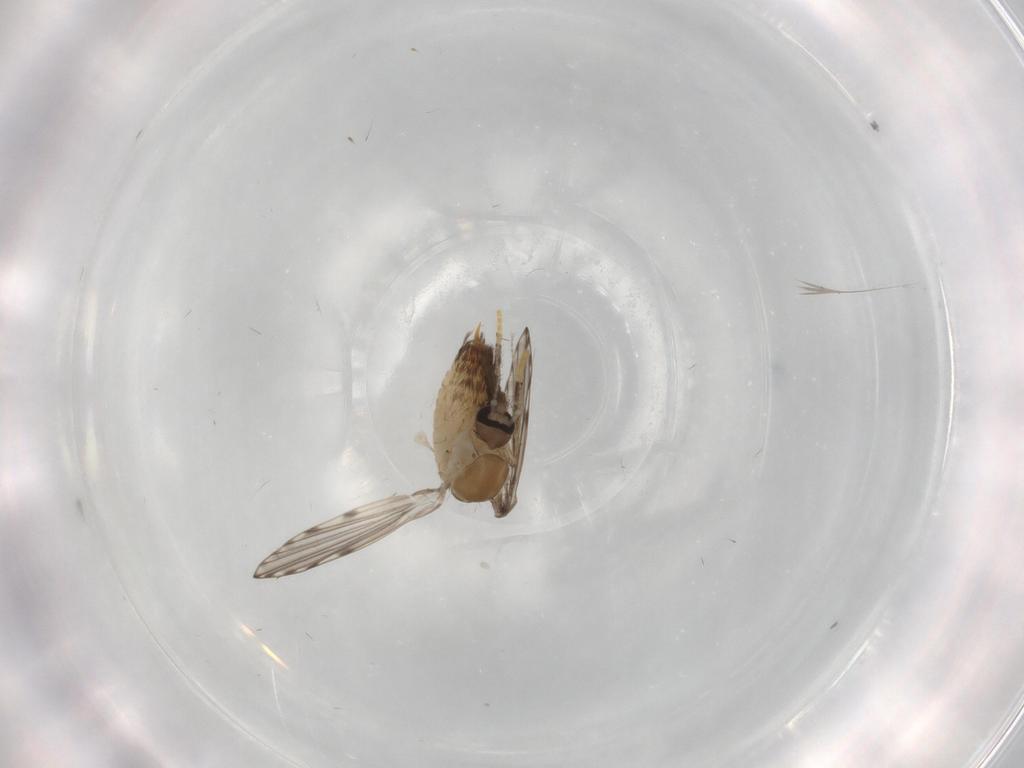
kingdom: Animalia
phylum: Arthropoda
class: Insecta
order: Diptera
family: Psychodidae
